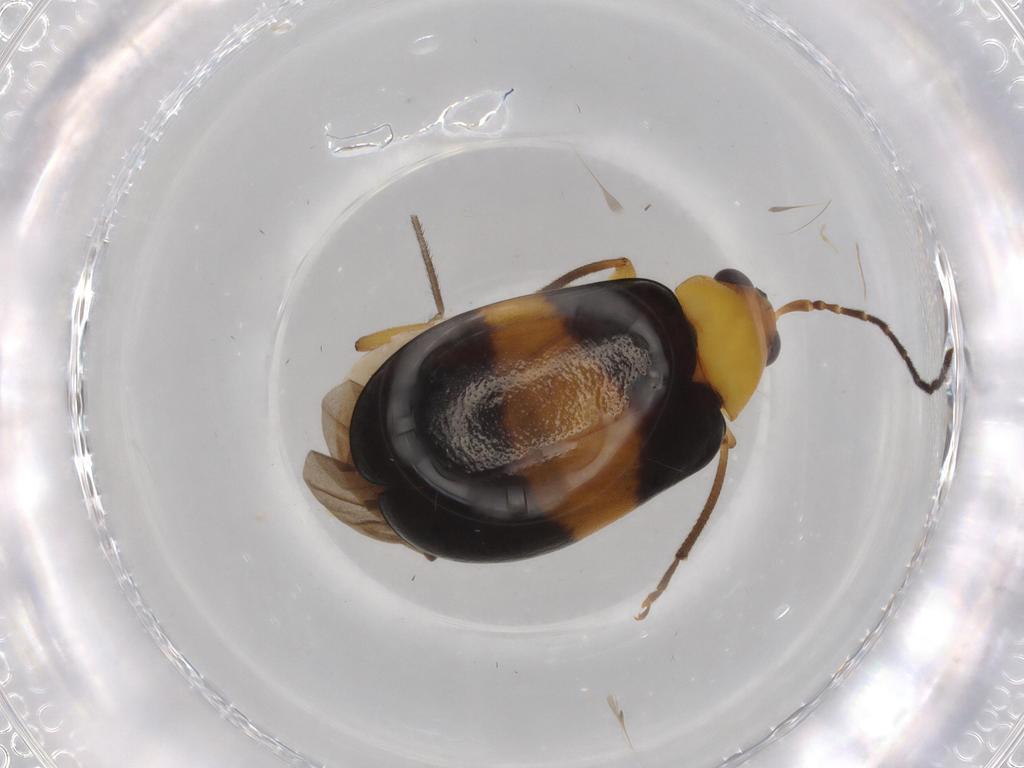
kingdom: Animalia
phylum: Arthropoda
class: Insecta
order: Coleoptera
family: Chrysomelidae
